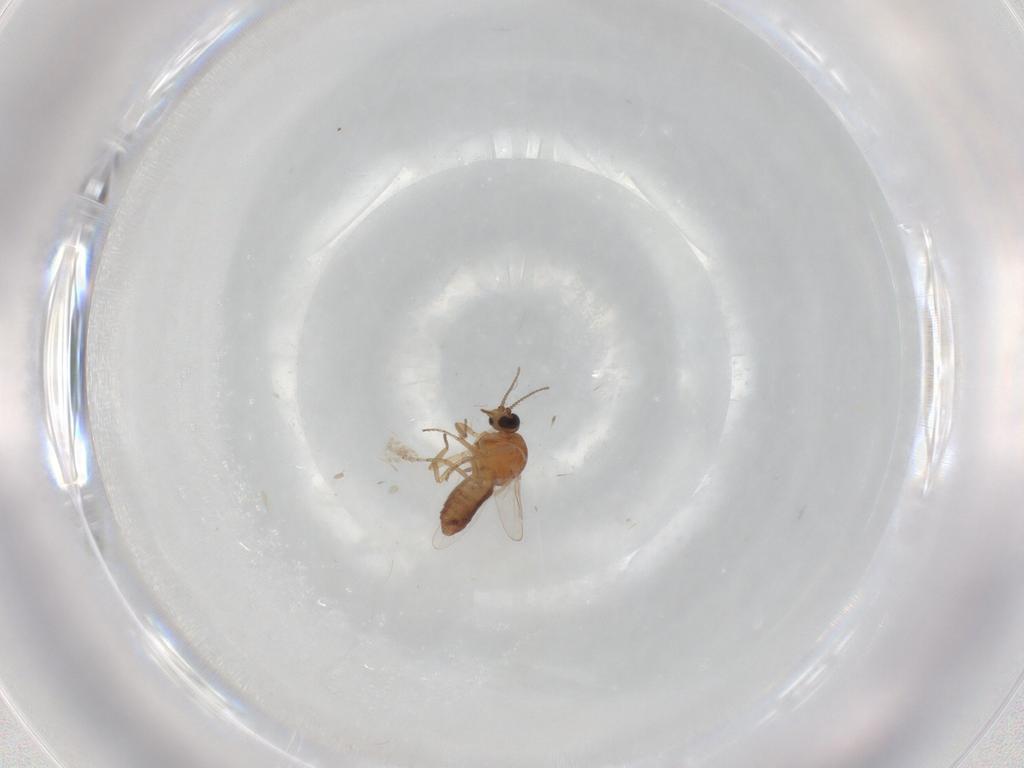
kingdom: Animalia
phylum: Arthropoda
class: Insecta
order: Diptera
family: Ceratopogonidae
